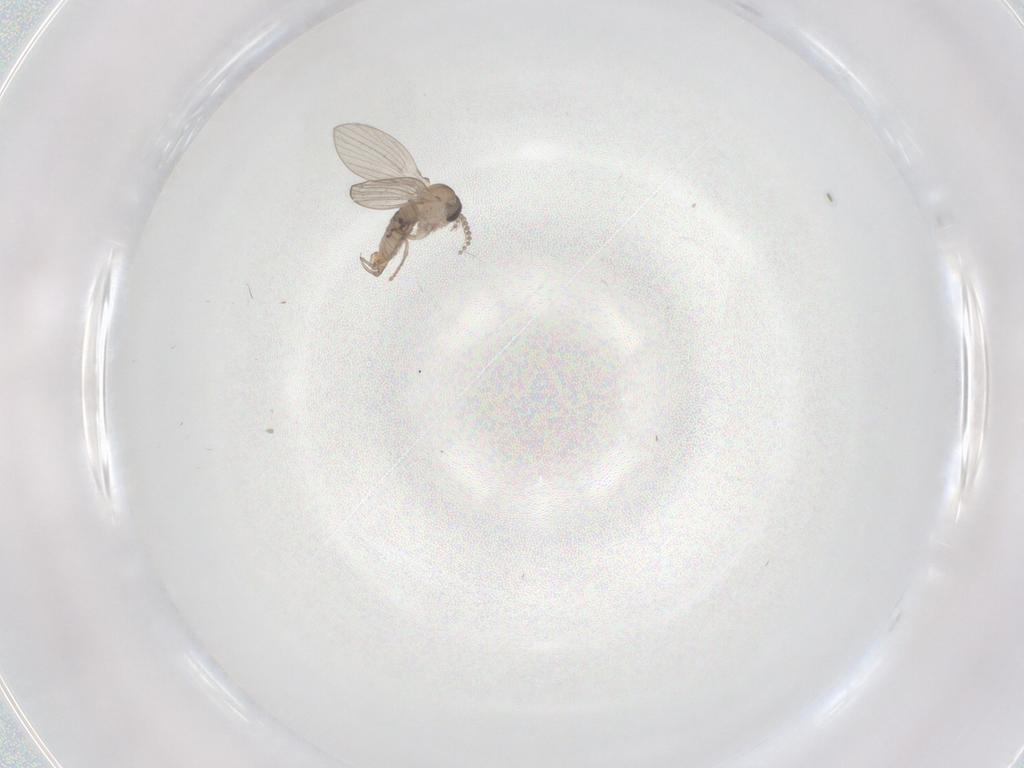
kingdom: Animalia
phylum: Arthropoda
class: Insecta
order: Diptera
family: Psychodidae
